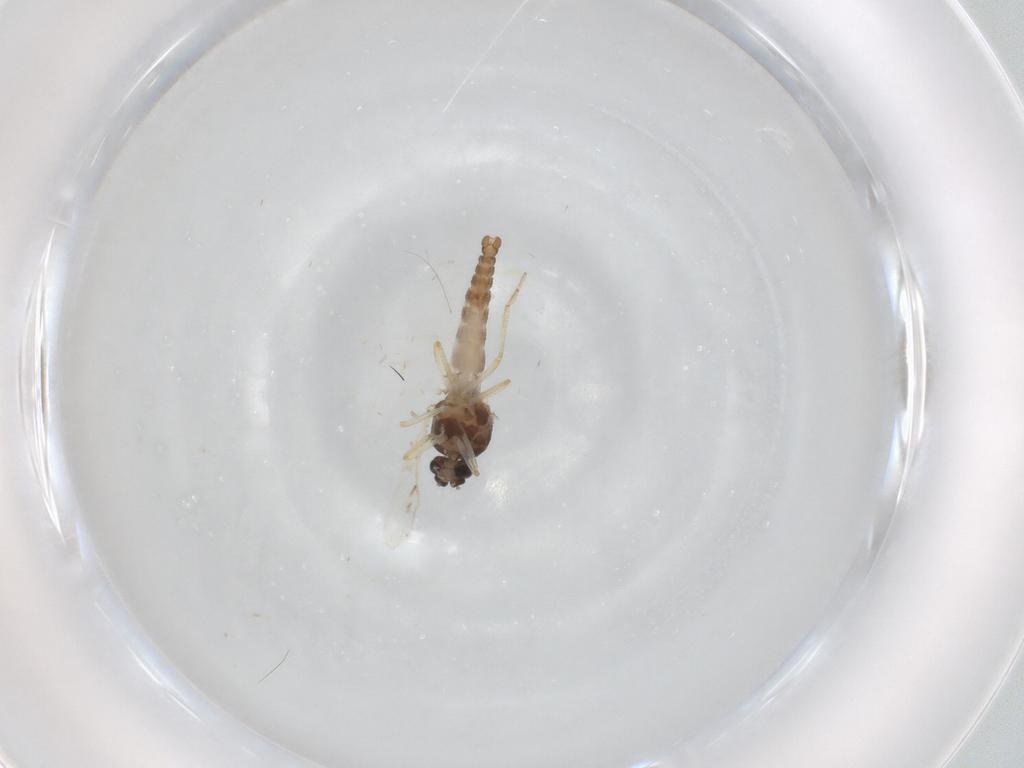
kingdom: Animalia
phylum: Arthropoda
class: Insecta
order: Diptera
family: Ceratopogonidae
